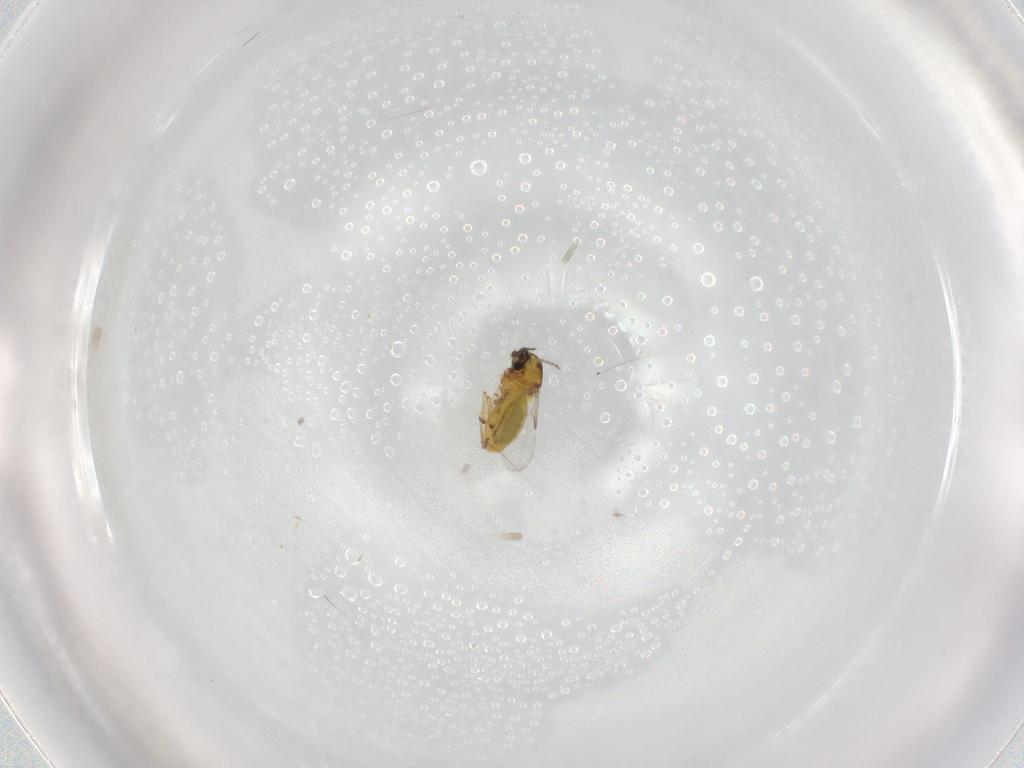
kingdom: Animalia
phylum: Arthropoda
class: Insecta
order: Diptera
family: Ceratopogonidae
